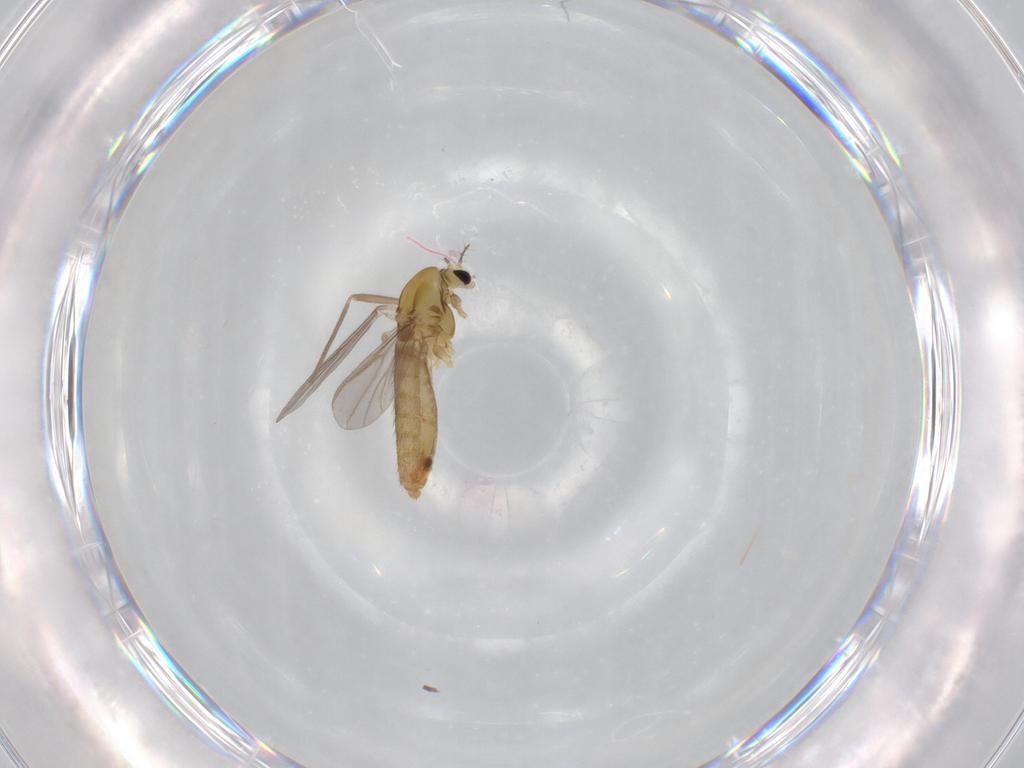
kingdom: Animalia
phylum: Arthropoda
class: Insecta
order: Diptera
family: Chironomidae
